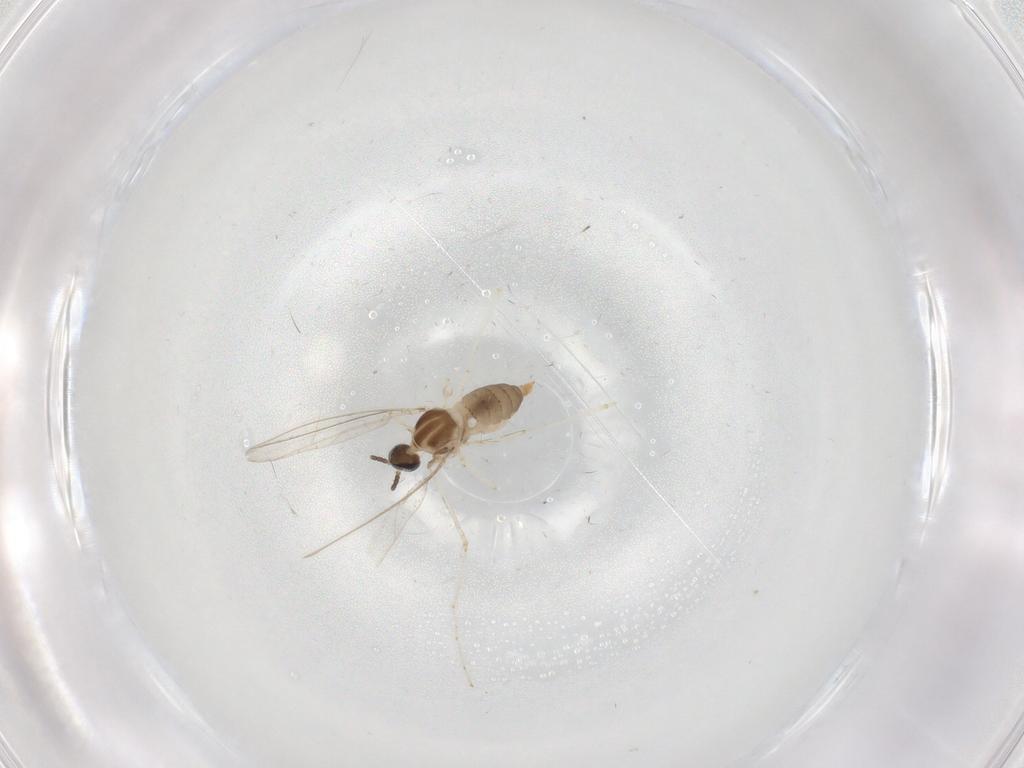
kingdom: Animalia
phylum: Arthropoda
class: Insecta
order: Diptera
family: Cecidomyiidae
